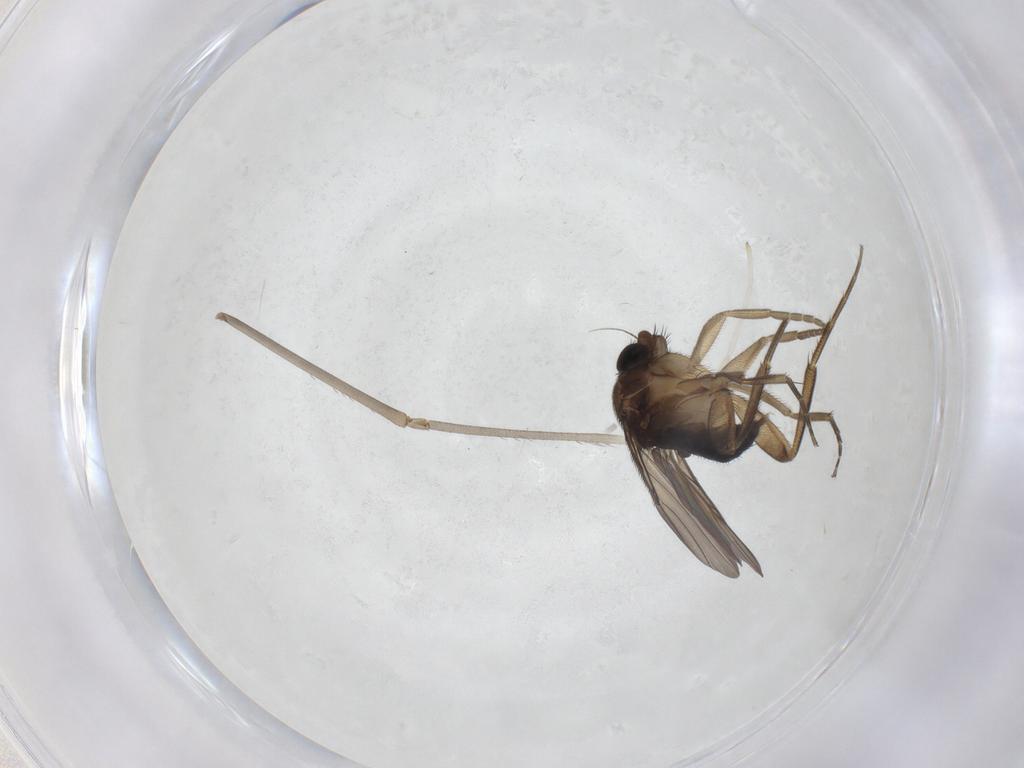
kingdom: Animalia
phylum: Arthropoda
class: Insecta
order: Diptera
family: Phoridae
